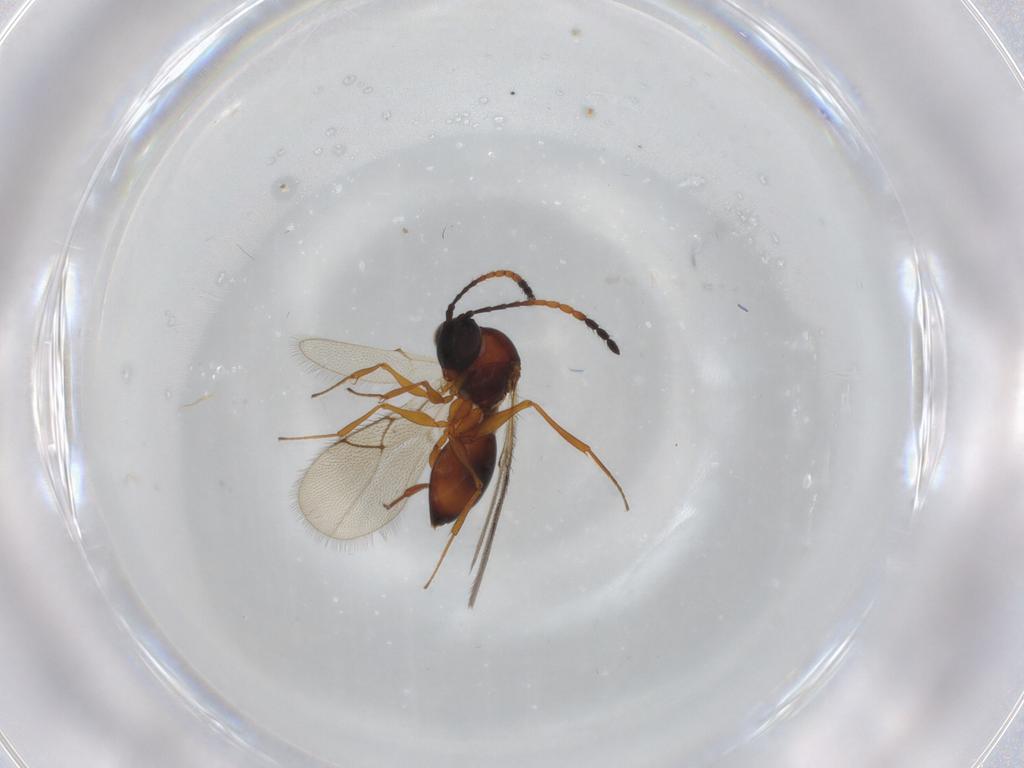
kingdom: Animalia
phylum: Arthropoda
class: Insecta
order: Hymenoptera
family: Figitidae
